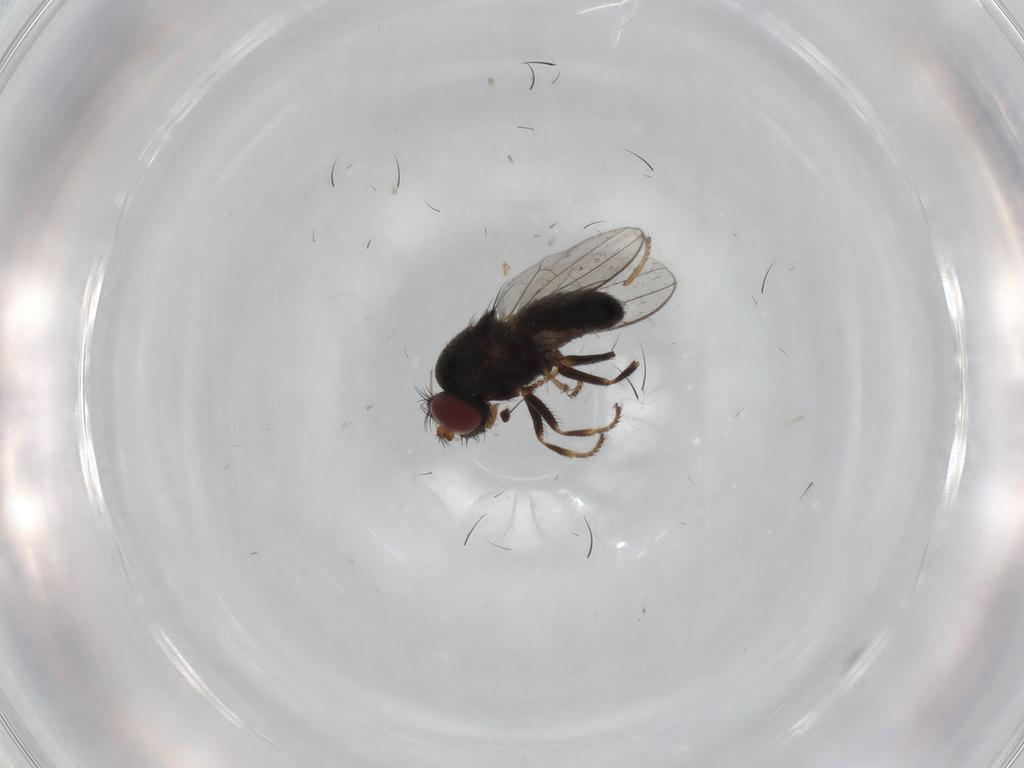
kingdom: Animalia
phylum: Arthropoda
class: Insecta
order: Diptera
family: Ephydridae
